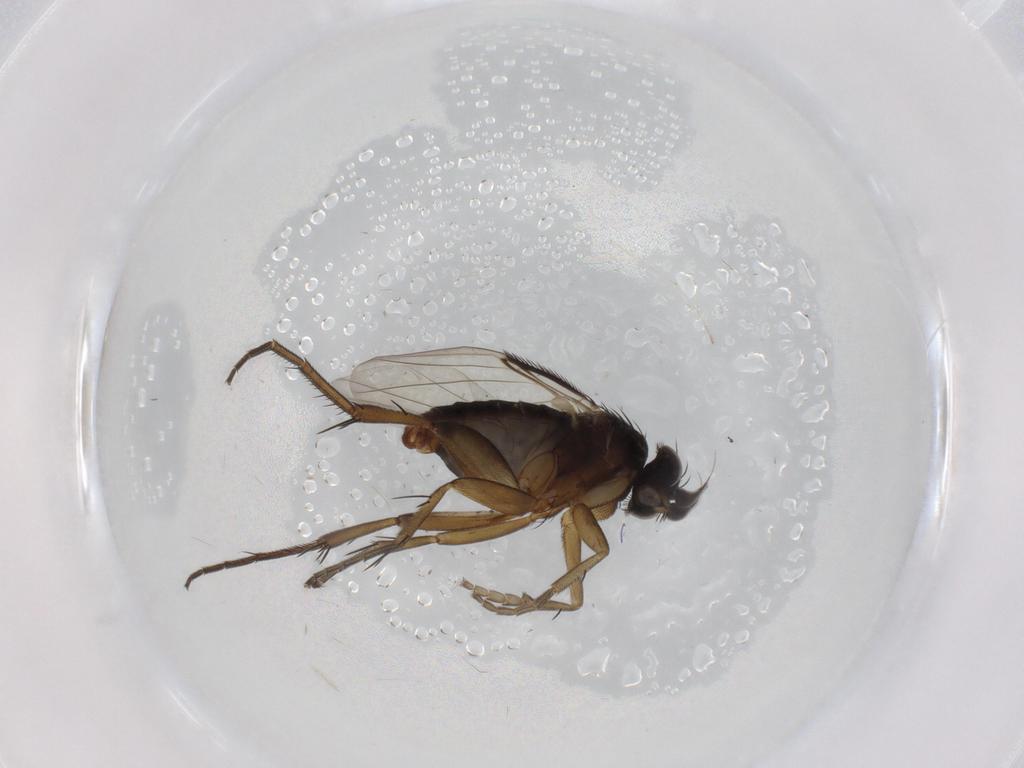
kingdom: Animalia
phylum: Arthropoda
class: Insecta
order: Diptera
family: Phoridae
